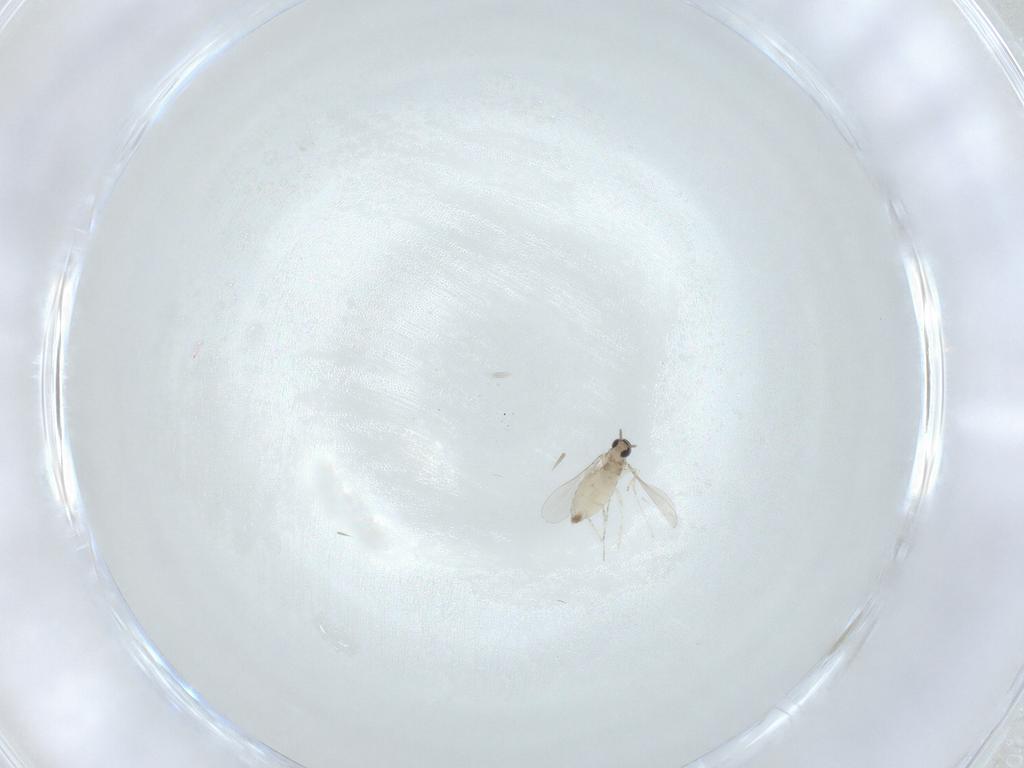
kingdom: Animalia
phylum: Arthropoda
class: Insecta
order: Diptera
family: Cecidomyiidae
